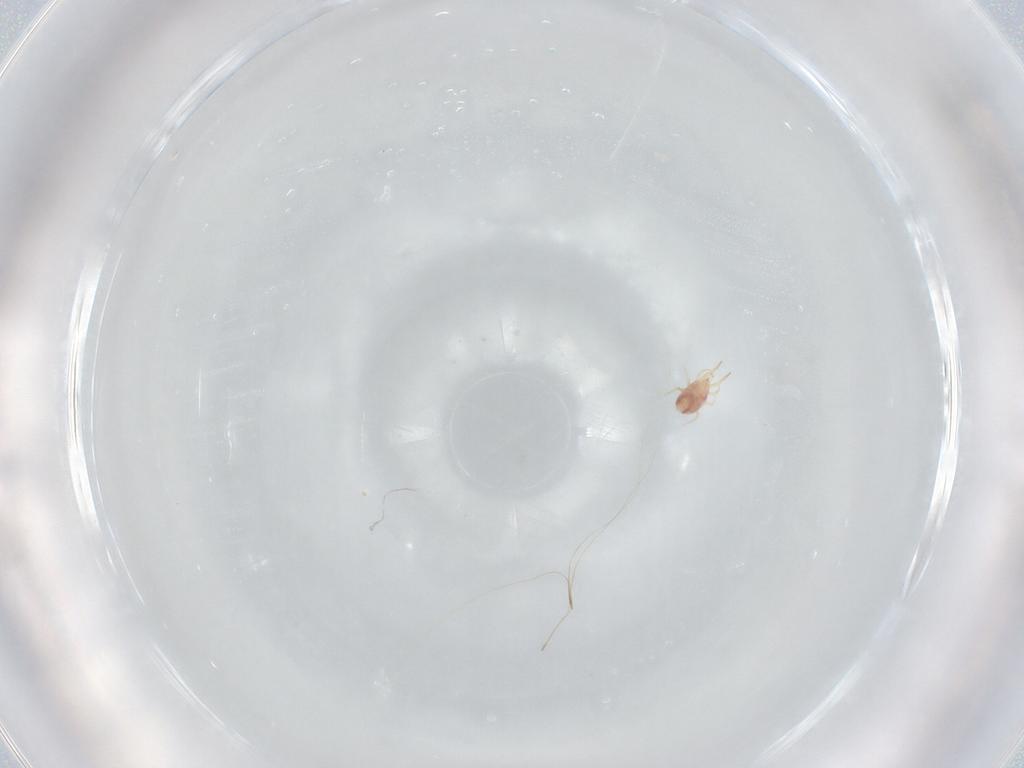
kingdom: Animalia
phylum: Arthropoda
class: Arachnida
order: Mesostigmata
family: Phytoseiidae
